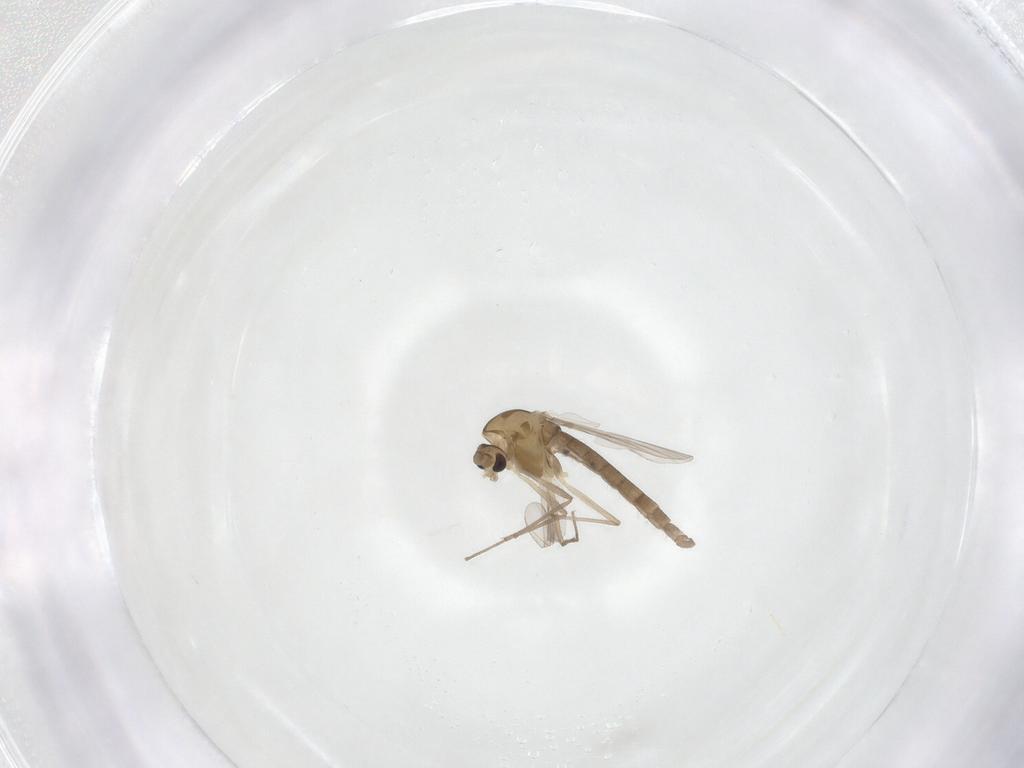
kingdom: Animalia
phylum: Arthropoda
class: Insecta
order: Diptera
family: Chironomidae
